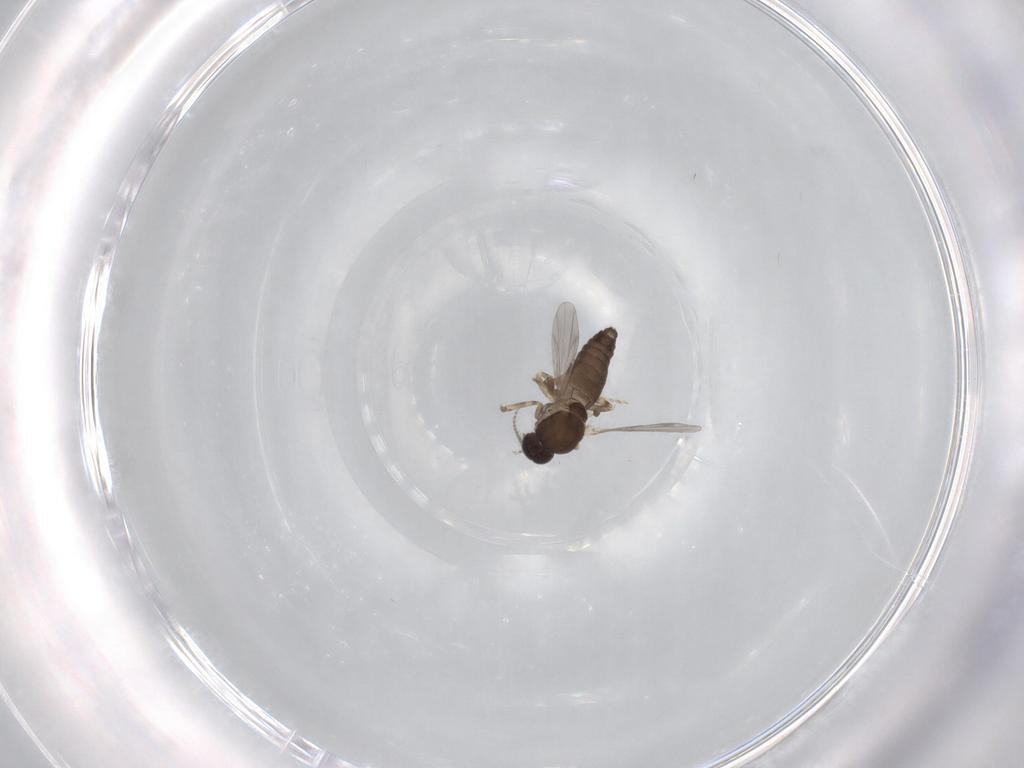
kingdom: Animalia
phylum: Arthropoda
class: Insecta
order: Diptera
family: Ceratopogonidae
